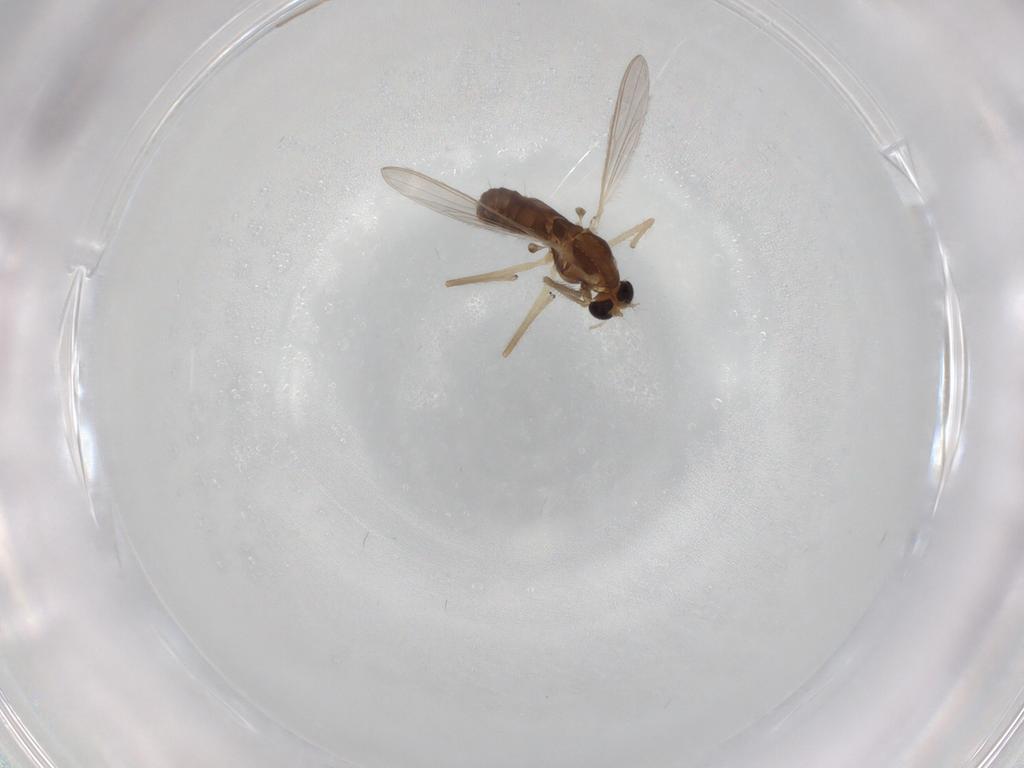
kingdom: Animalia
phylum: Arthropoda
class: Insecta
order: Diptera
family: Chironomidae
